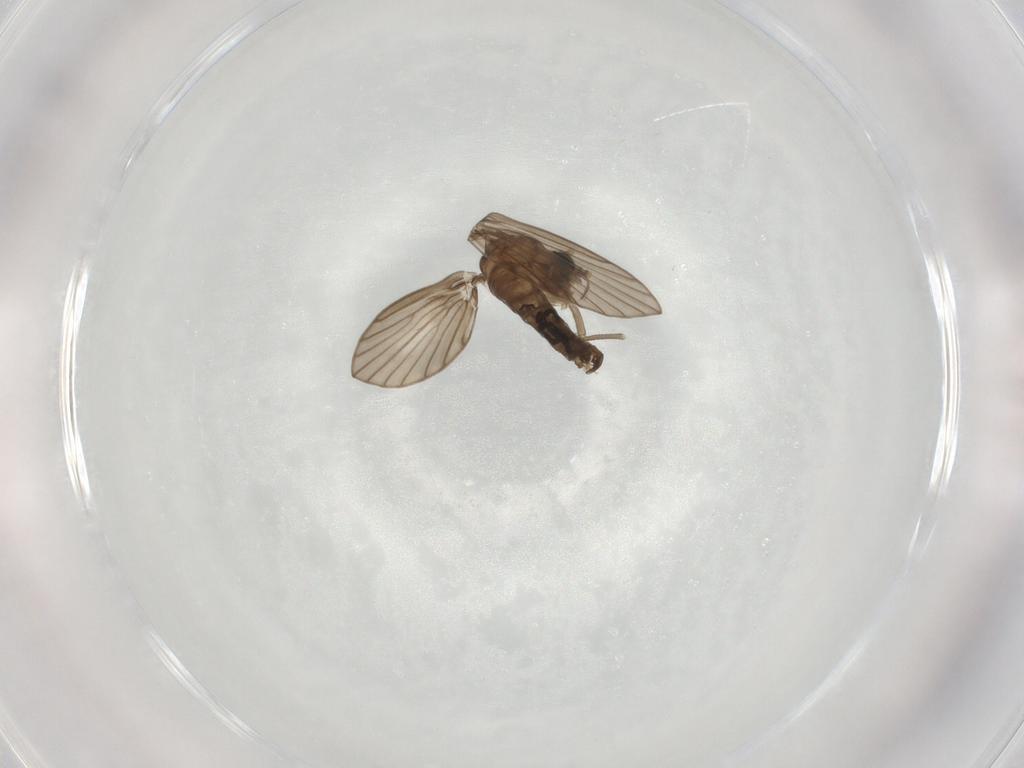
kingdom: Animalia
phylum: Arthropoda
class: Insecta
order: Diptera
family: Psychodidae
